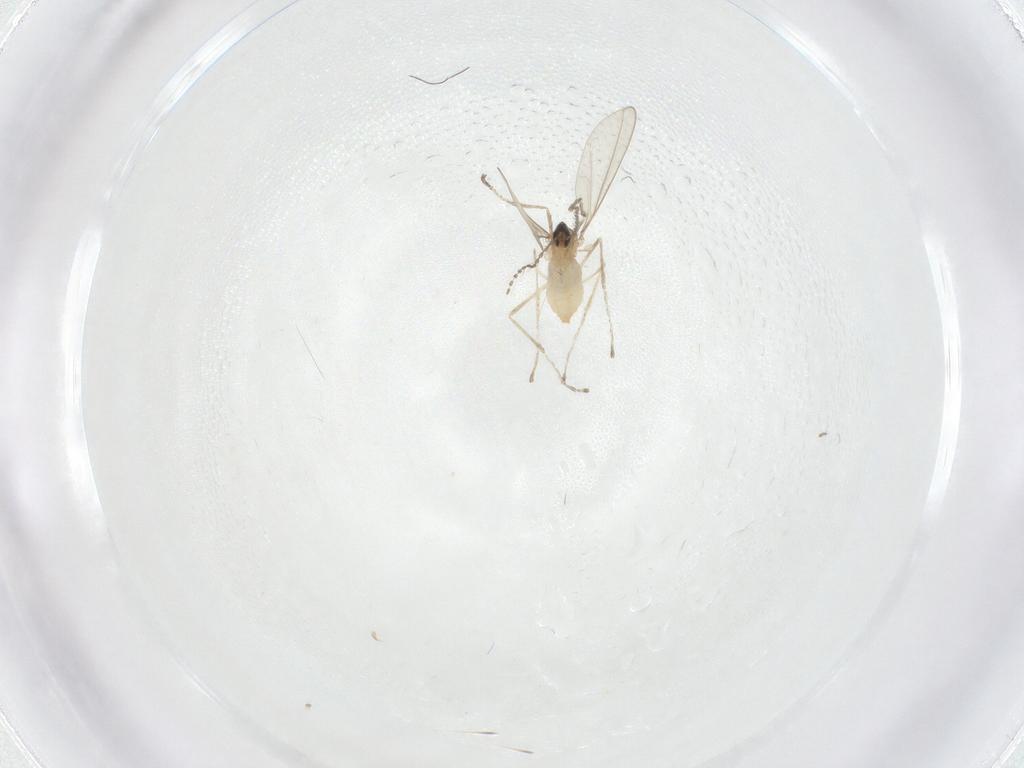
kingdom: Animalia
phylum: Arthropoda
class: Insecta
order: Diptera
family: Cecidomyiidae
